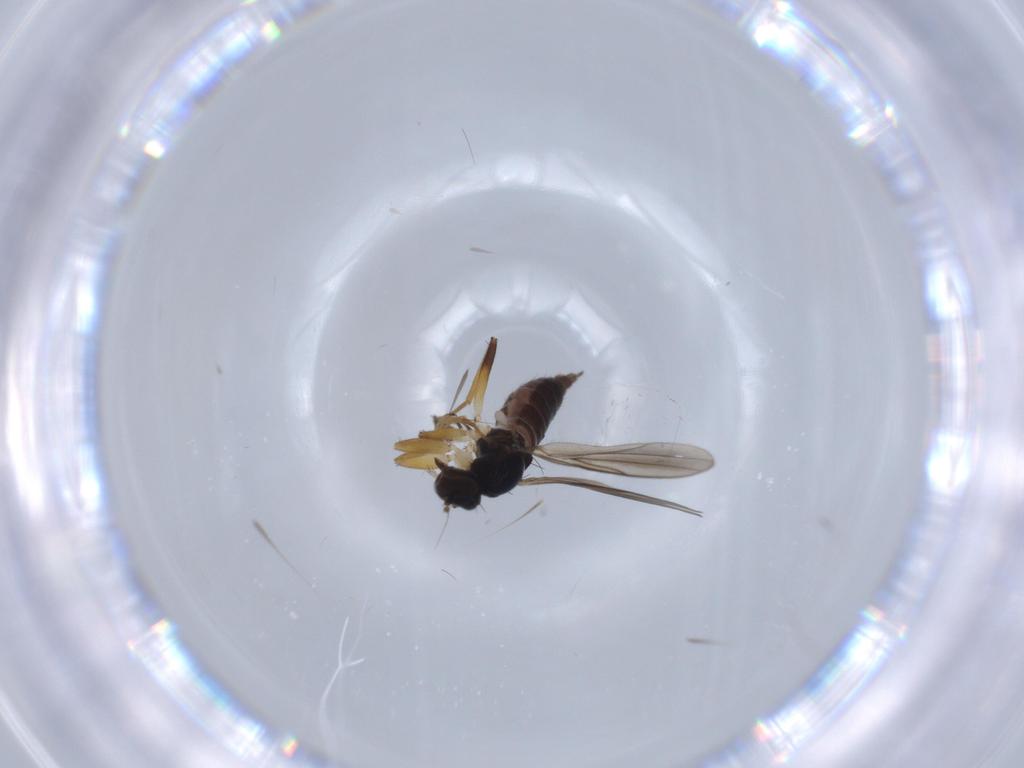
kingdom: Animalia
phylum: Arthropoda
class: Insecta
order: Diptera
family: Hybotidae
